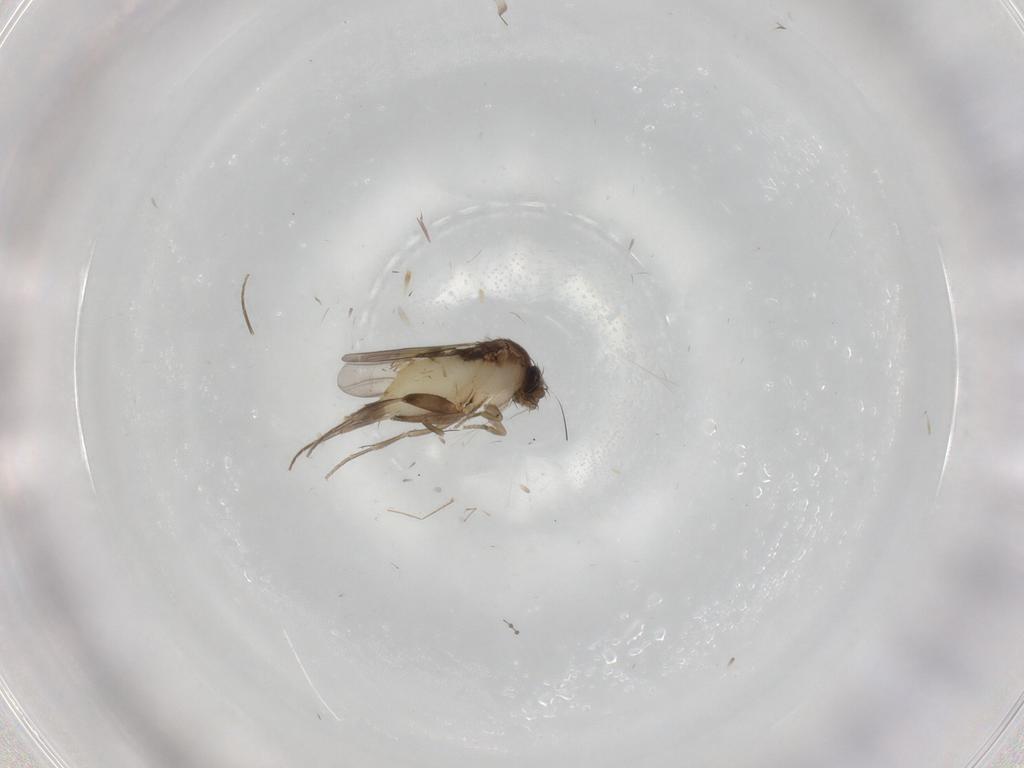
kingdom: Animalia
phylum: Arthropoda
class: Insecta
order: Diptera
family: Phoridae
